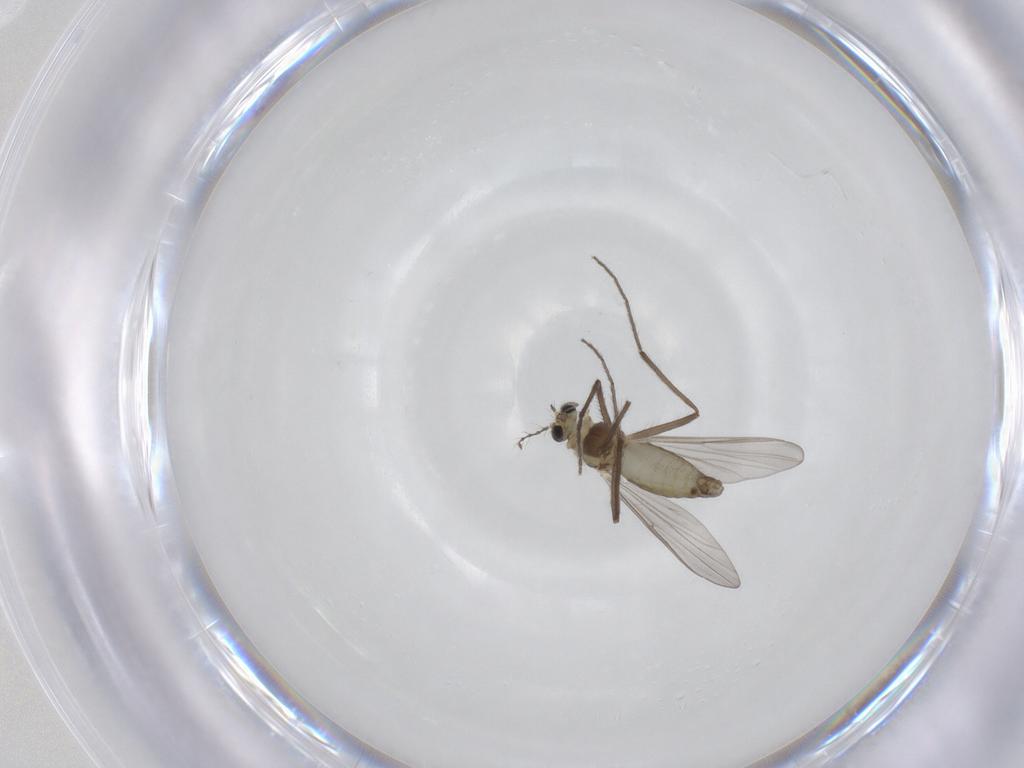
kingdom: Animalia
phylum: Arthropoda
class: Insecta
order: Diptera
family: Chironomidae
